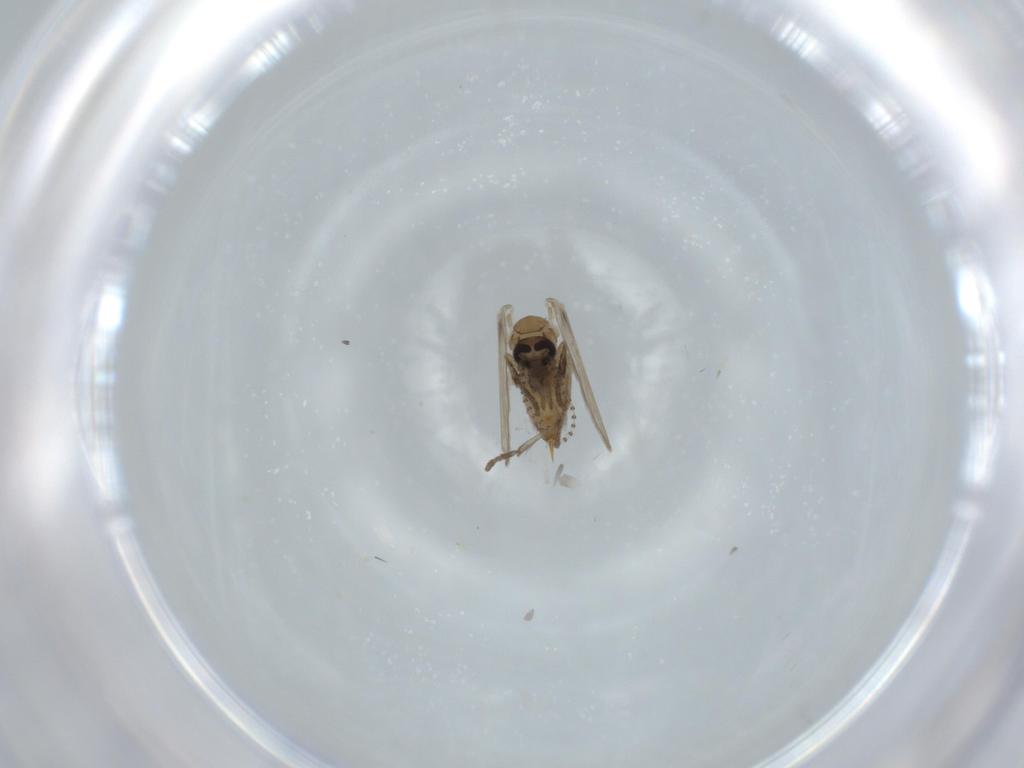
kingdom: Animalia
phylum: Arthropoda
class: Insecta
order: Diptera
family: Psychodidae
